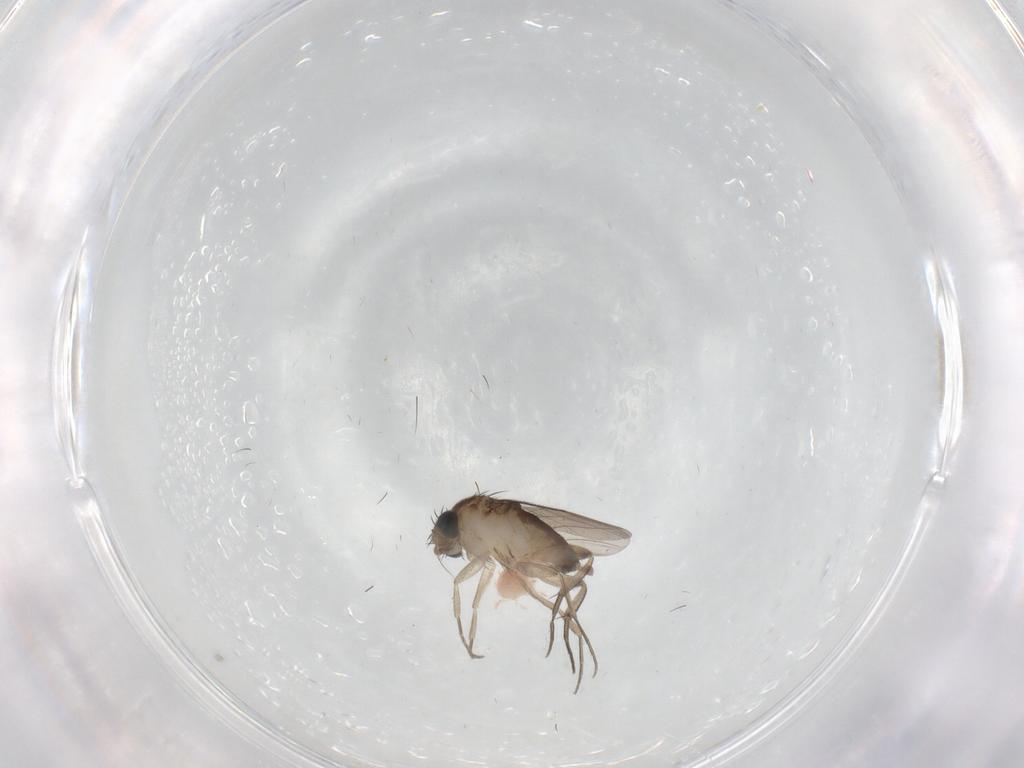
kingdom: Animalia
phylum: Arthropoda
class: Insecta
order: Diptera
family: Phoridae
